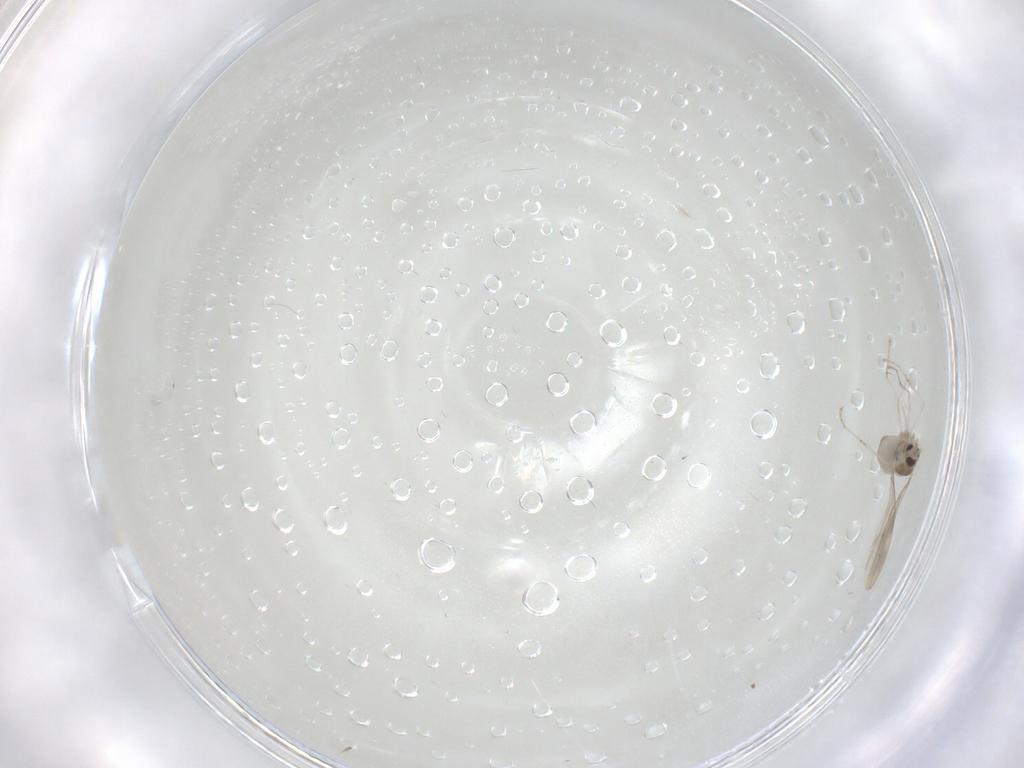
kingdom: Animalia
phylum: Arthropoda
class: Insecta
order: Diptera
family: Cecidomyiidae
